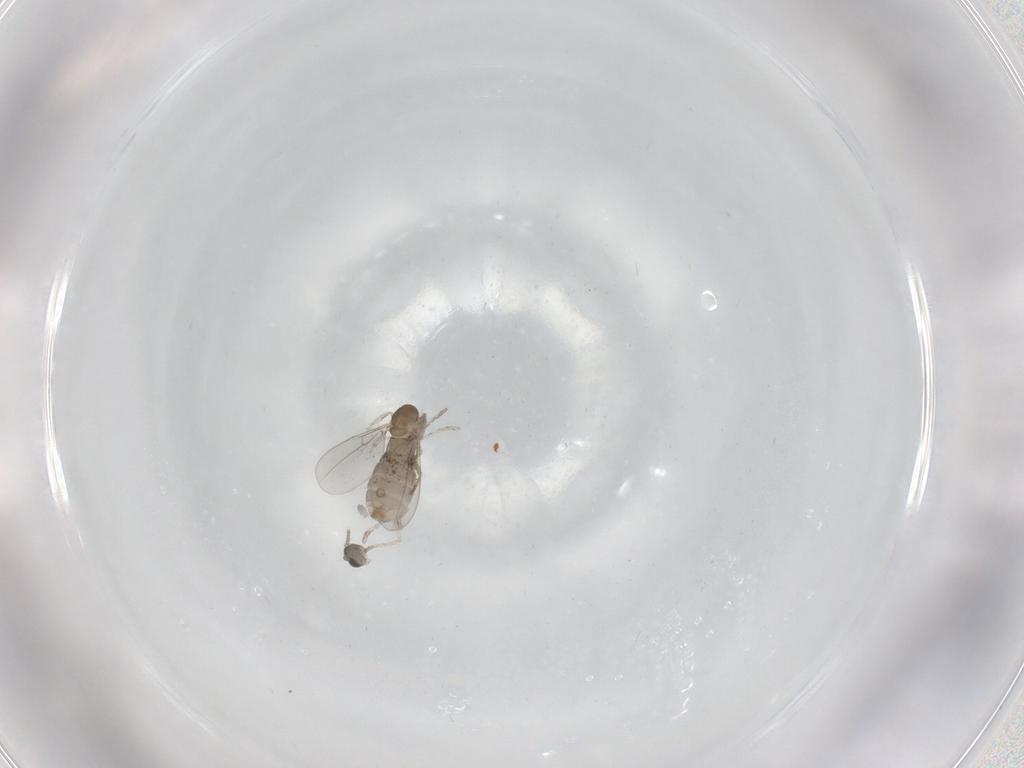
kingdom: Animalia
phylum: Arthropoda
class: Insecta
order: Diptera
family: Cecidomyiidae
